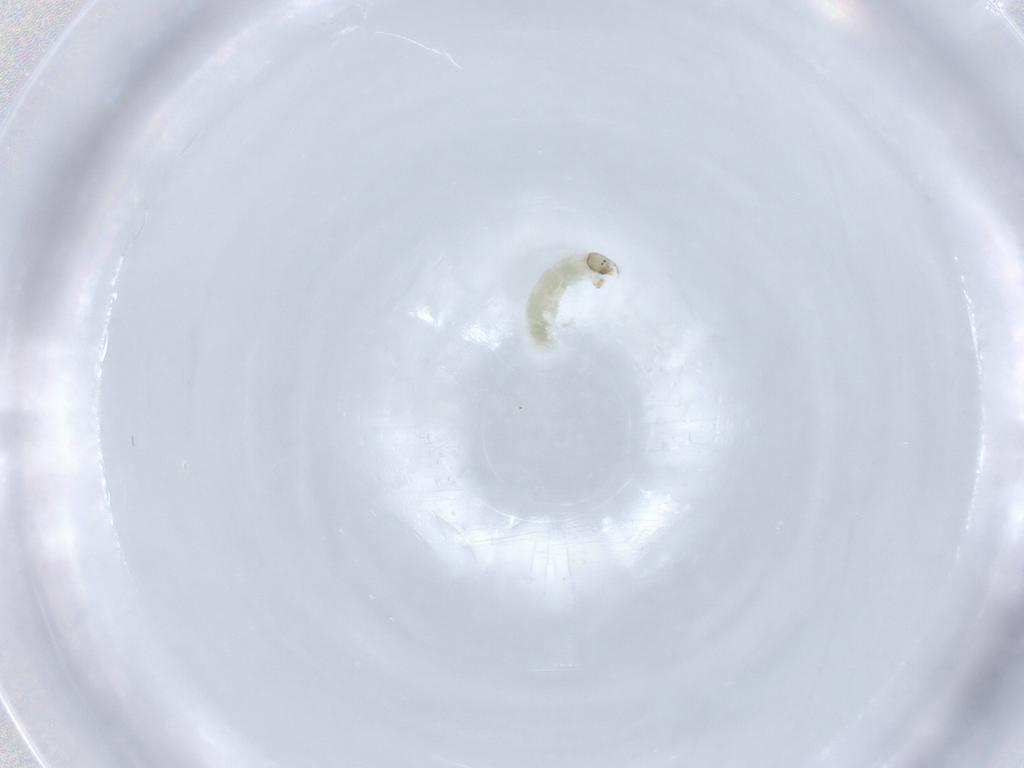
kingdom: Animalia
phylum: Arthropoda
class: Insecta
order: Diptera
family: Chironomidae
